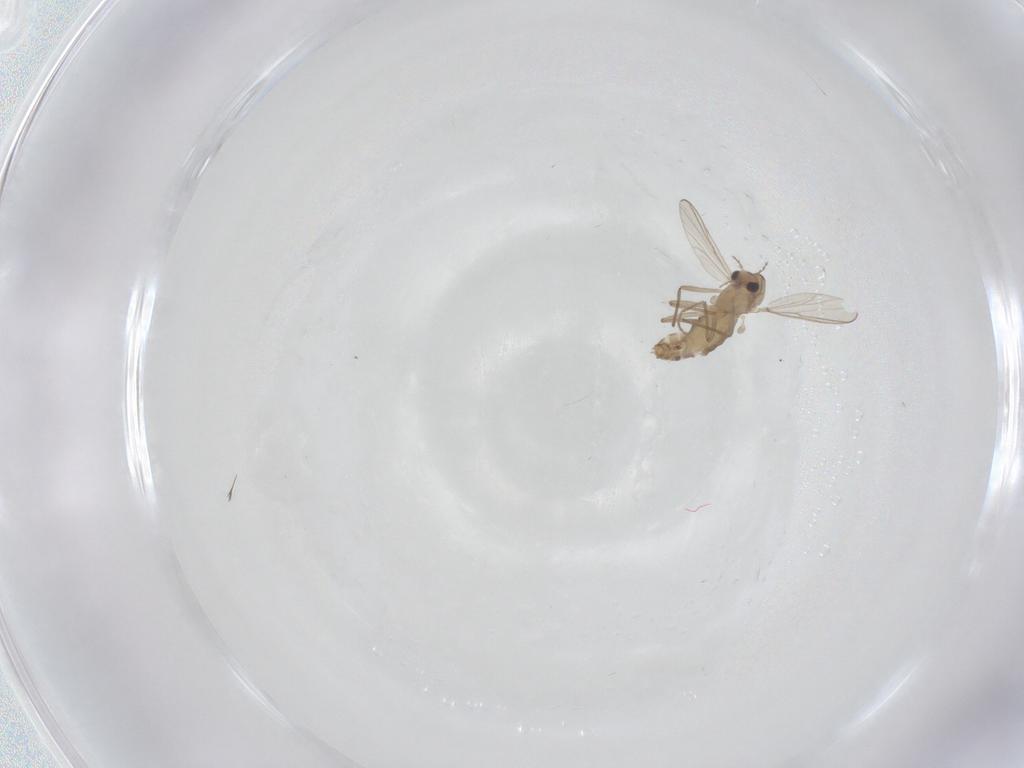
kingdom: Animalia
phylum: Arthropoda
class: Insecta
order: Diptera
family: Chironomidae
